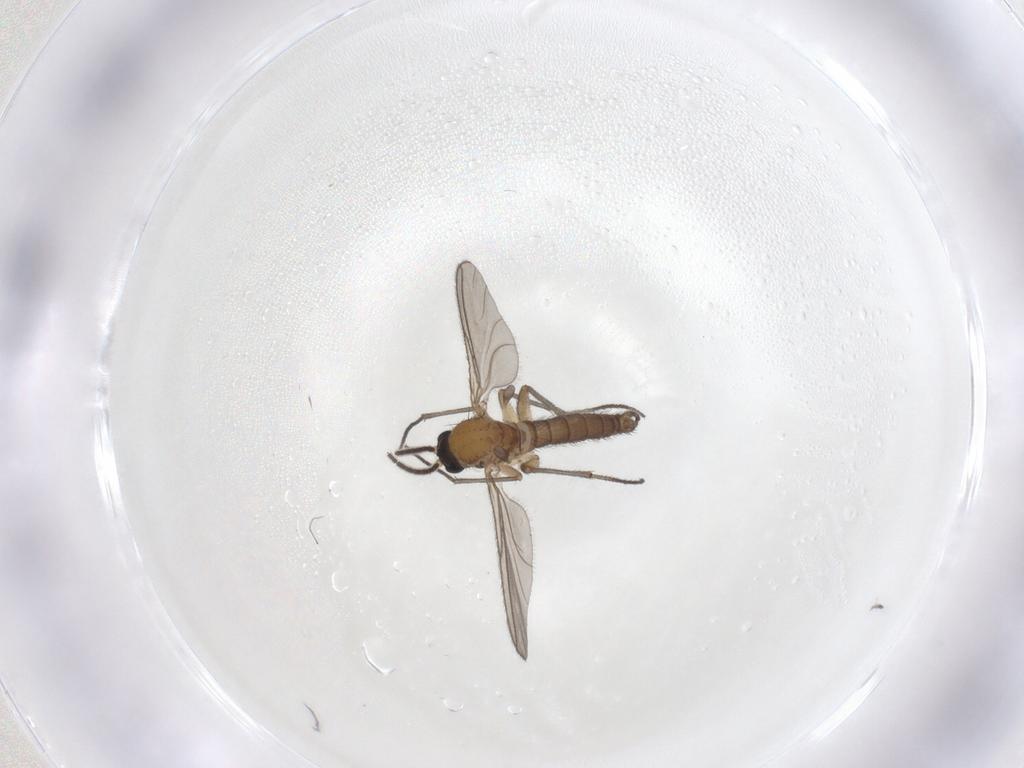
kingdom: Animalia
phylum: Arthropoda
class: Insecta
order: Diptera
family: Sciaridae
